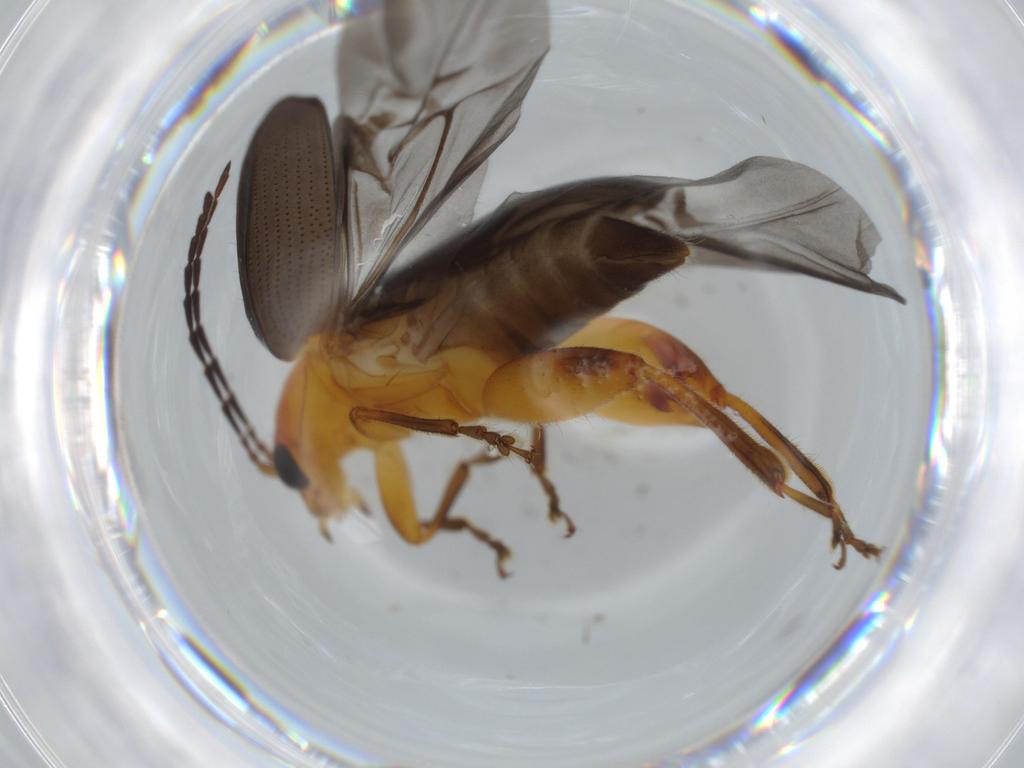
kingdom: Animalia
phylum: Arthropoda
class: Insecta
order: Coleoptera
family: Chrysomelidae
